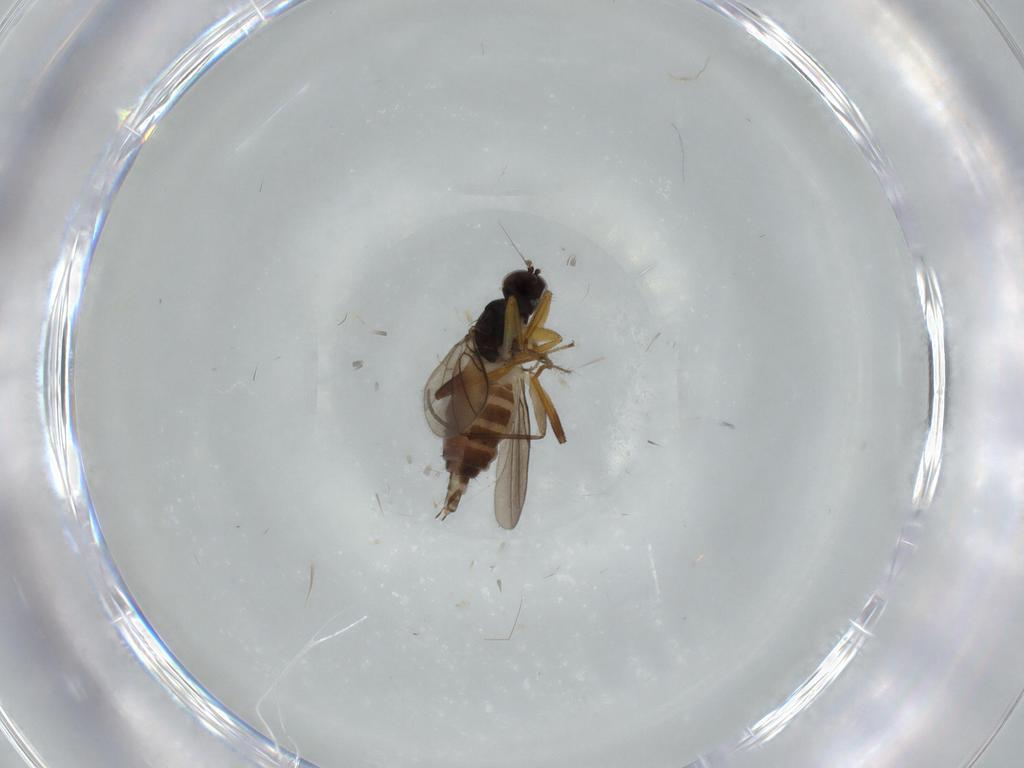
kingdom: Animalia
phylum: Arthropoda
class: Insecta
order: Diptera
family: Hybotidae
